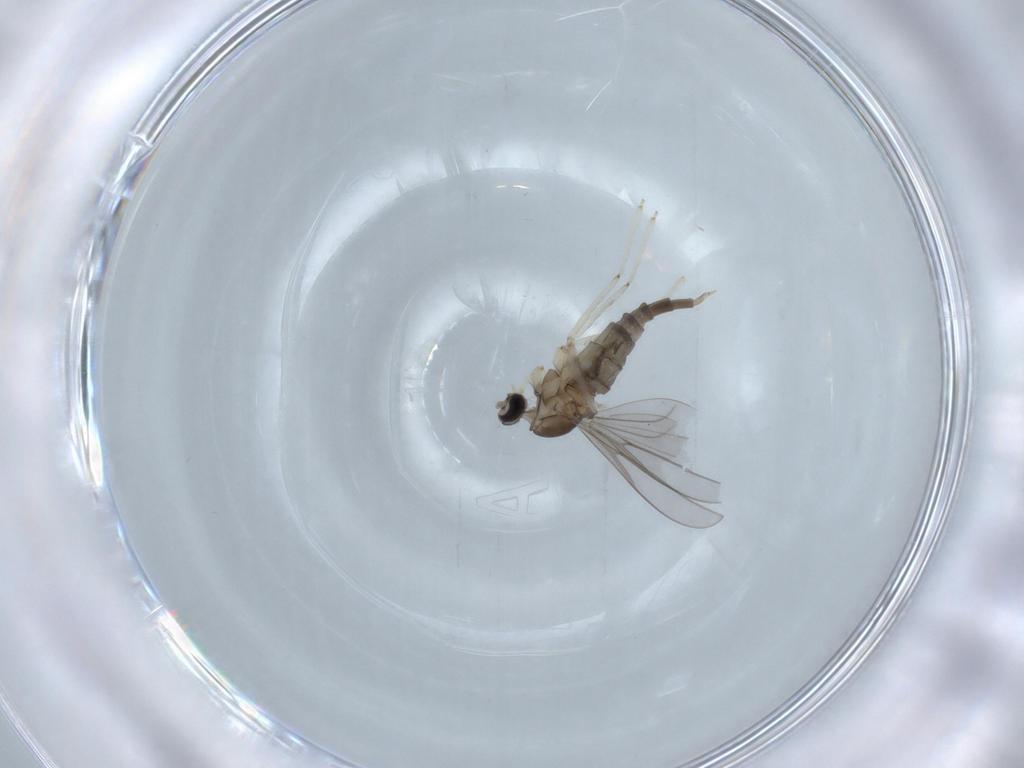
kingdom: Animalia
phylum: Arthropoda
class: Insecta
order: Diptera
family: Cecidomyiidae
